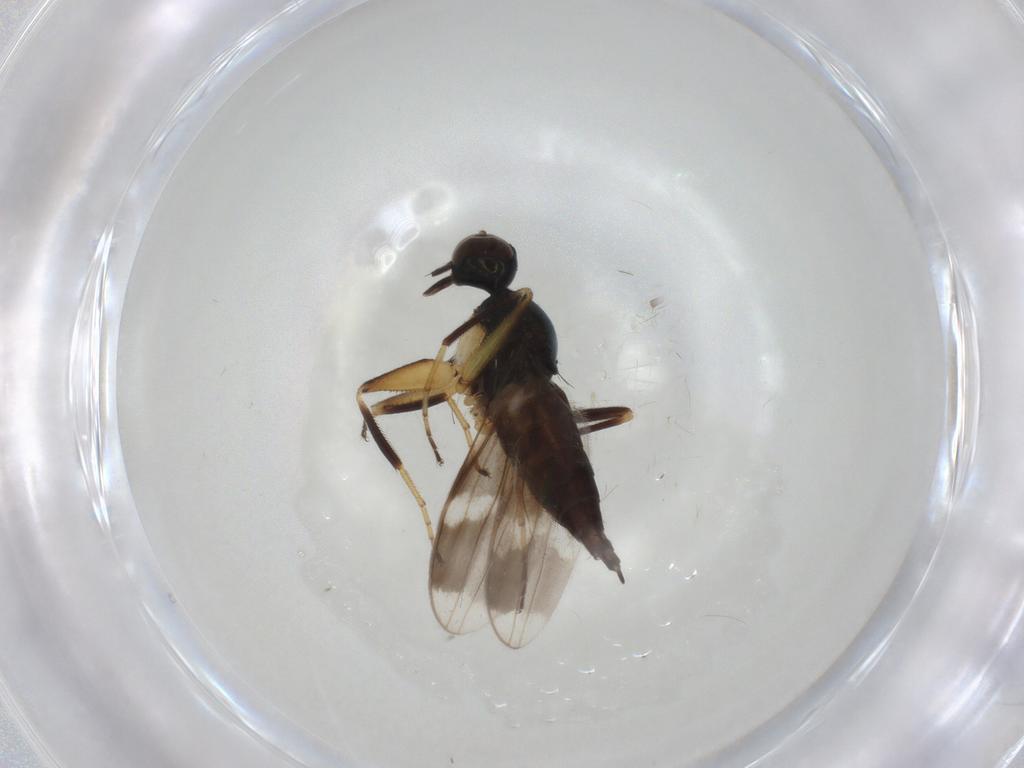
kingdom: Animalia
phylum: Arthropoda
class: Insecta
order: Diptera
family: Hybotidae
